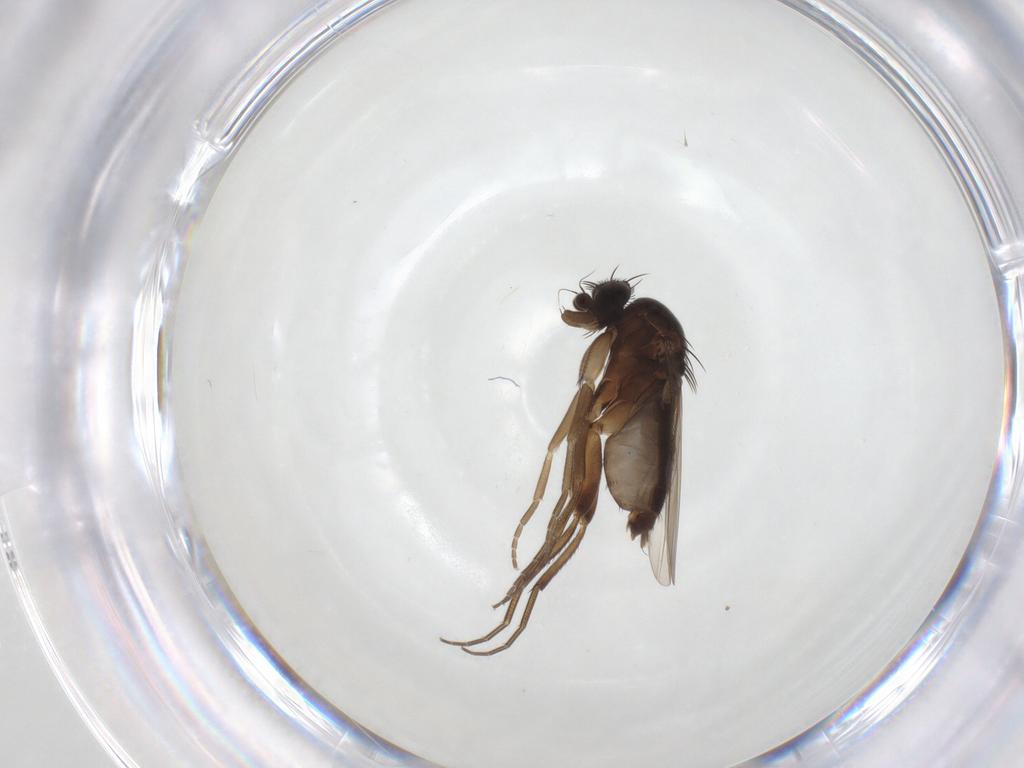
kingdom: Animalia
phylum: Arthropoda
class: Insecta
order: Diptera
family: Phoridae
